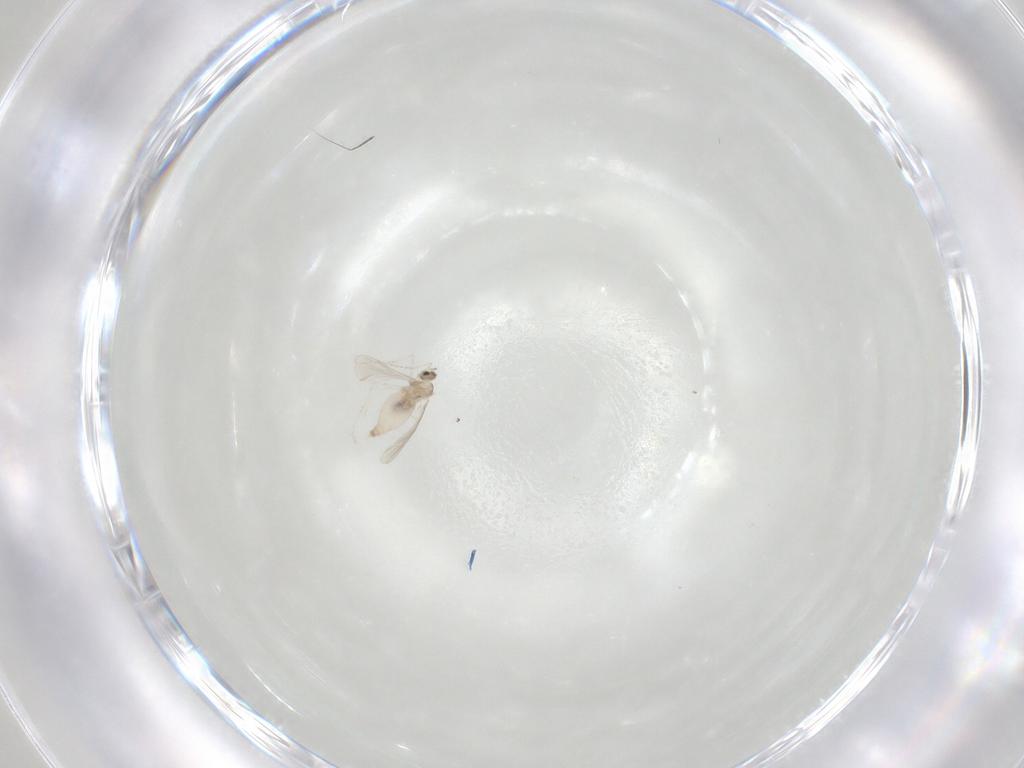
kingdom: Animalia
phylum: Arthropoda
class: Insecta
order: Diptera
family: Cecidomyiidae
